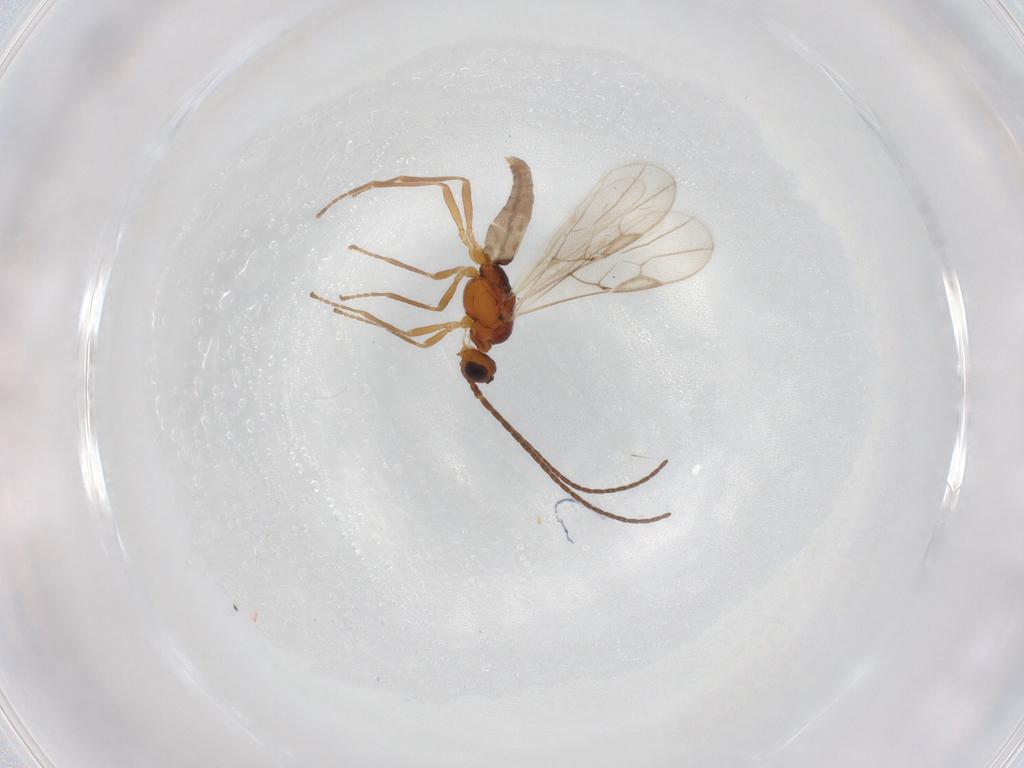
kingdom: Animalia
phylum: Arthropoda
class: Insecta
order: Hymenoptera
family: Braconidae
